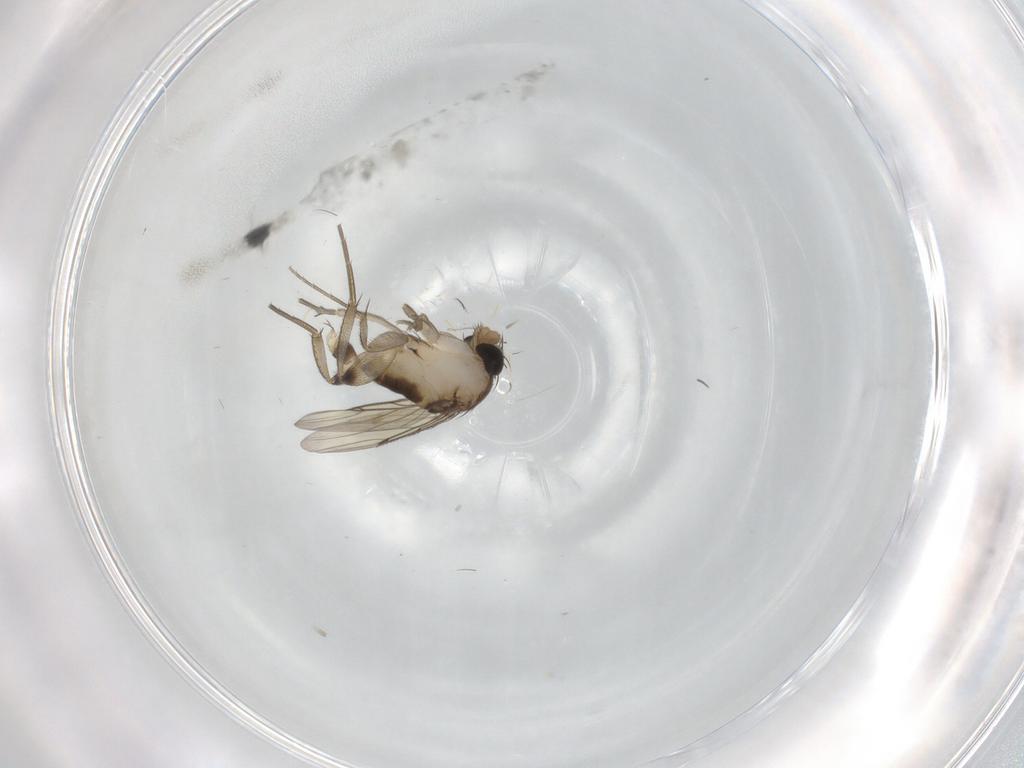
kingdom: Animalia
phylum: Arthropoda
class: Insecta
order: Diptera
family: Phoridae
